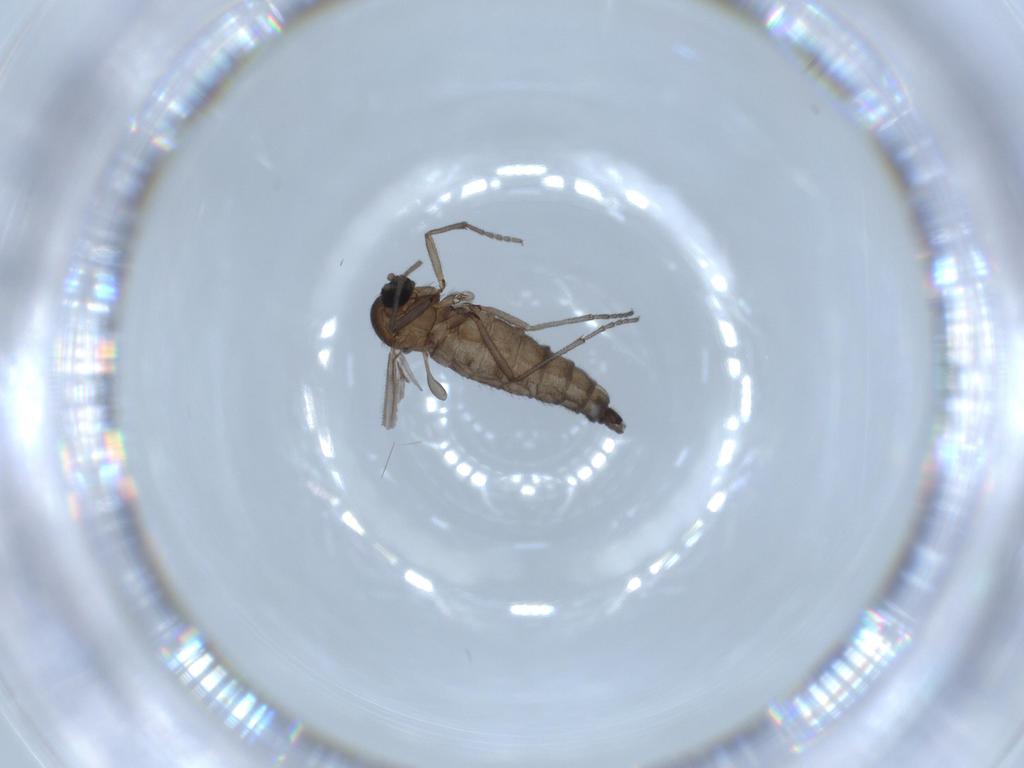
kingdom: Animalia
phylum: Arthropoda
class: Insecta
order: Diptera
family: Sciaridae
